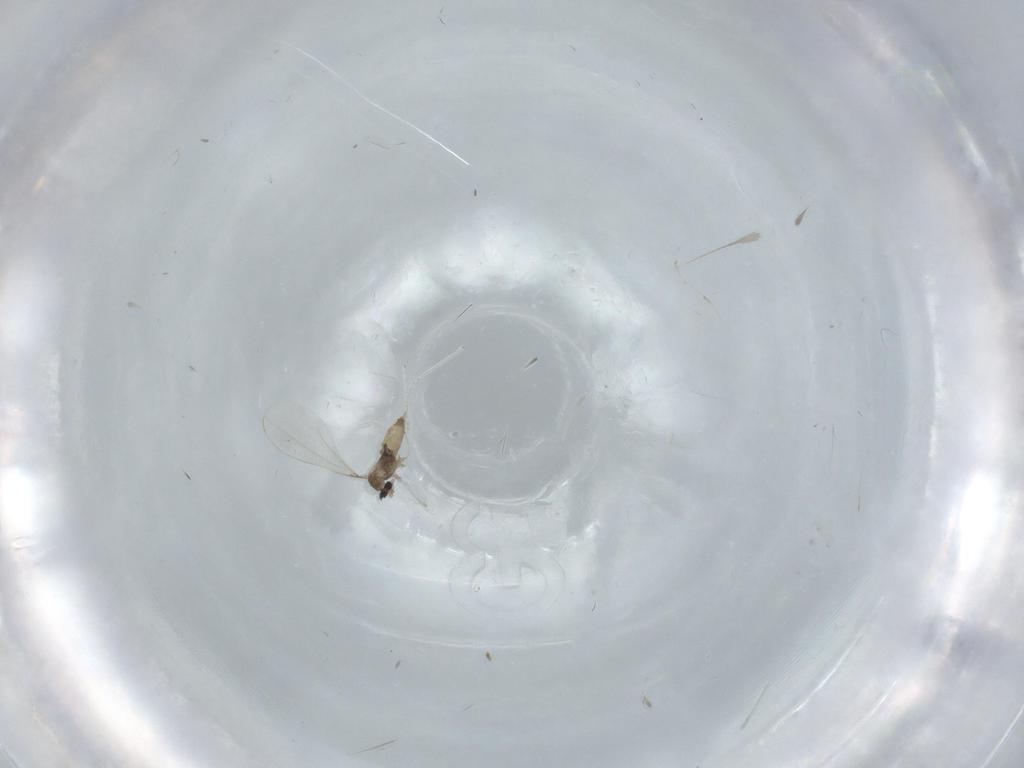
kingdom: Animalia
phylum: Arthropoda
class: Insecta
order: Diptera
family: Cecidomyiidae
